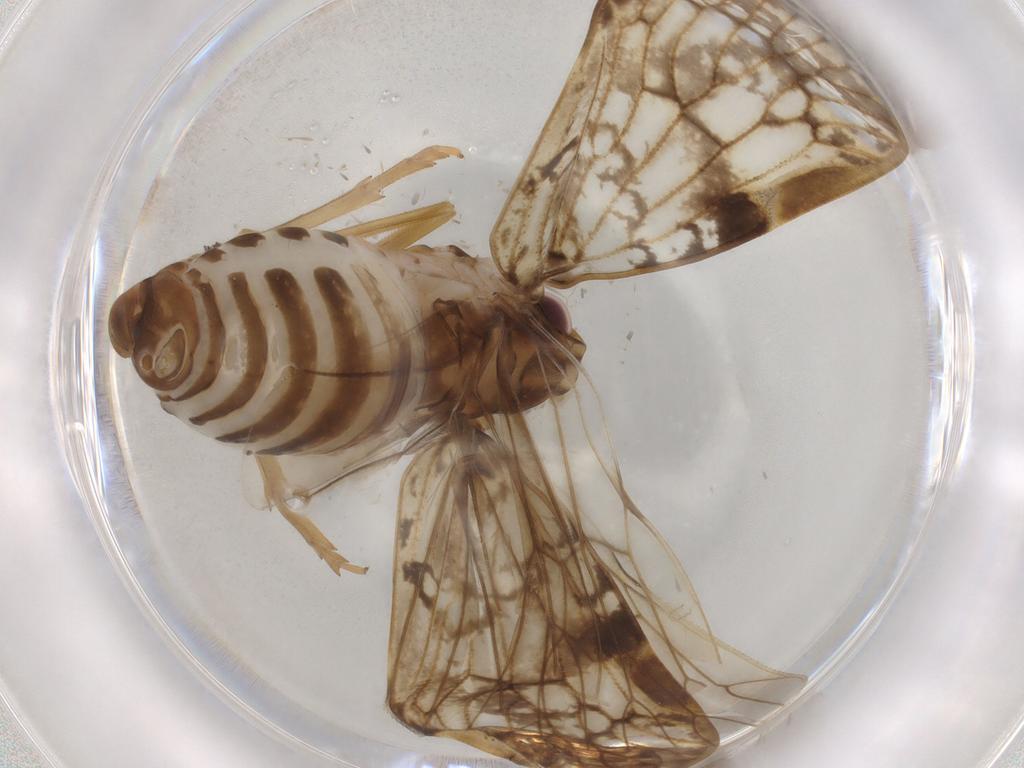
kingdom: Animalia
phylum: Arthropoda
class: Insecta
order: Hemiptera
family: Cixiidae
